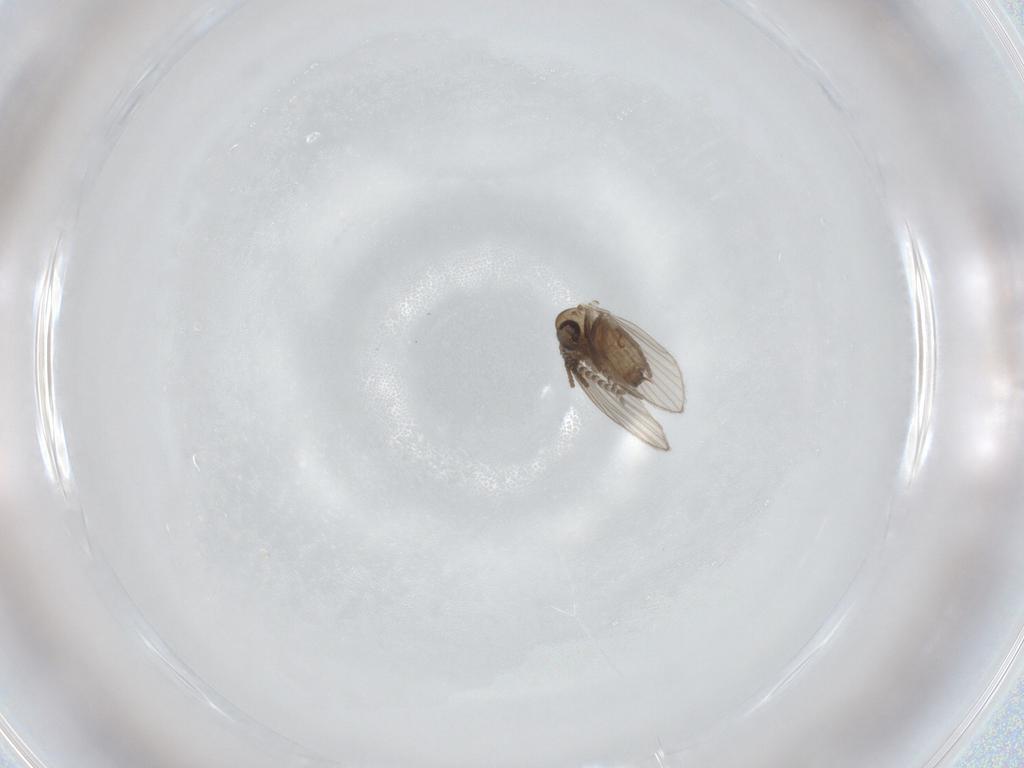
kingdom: Animalia
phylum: Arthropoda
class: Insecta
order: Diptera
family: Psychodidae
